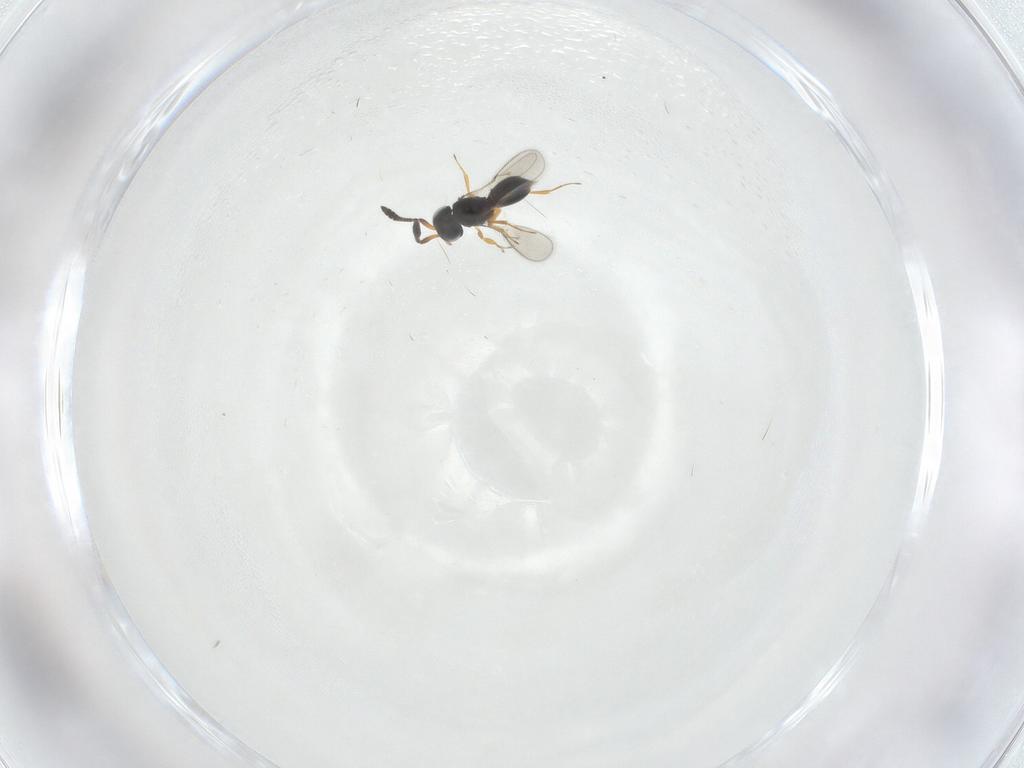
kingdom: Animalia
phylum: Arthropoda
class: Insecta
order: Hymenoptera
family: Scelionidae
